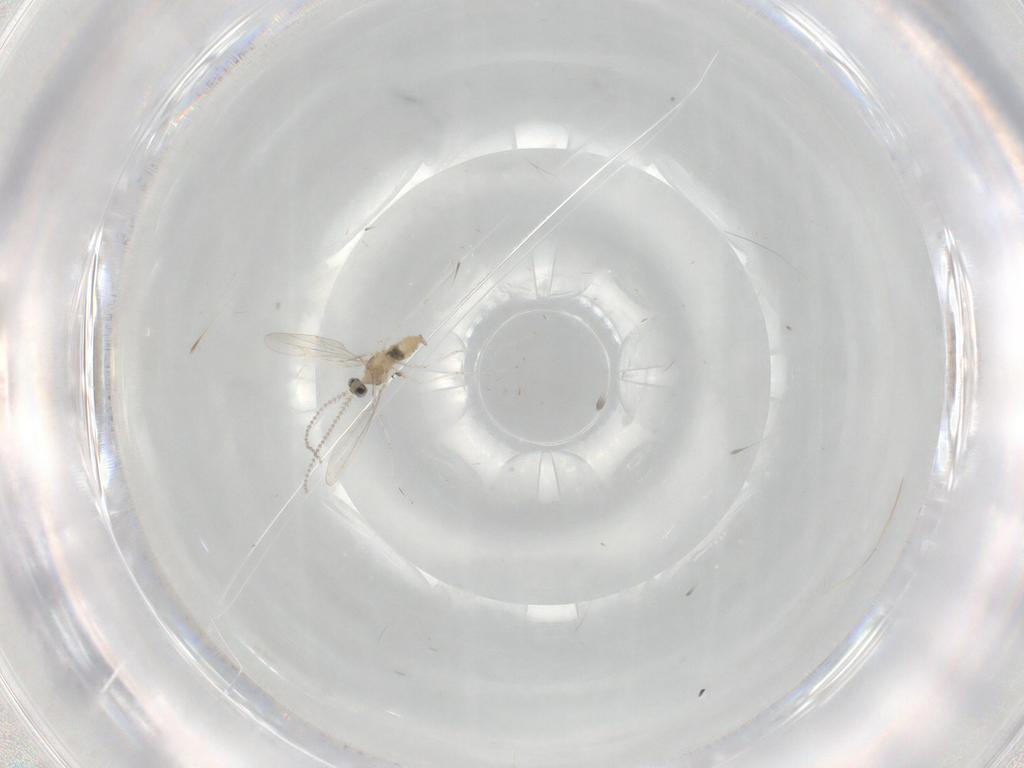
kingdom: Animalia
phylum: Arthropoda
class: Insecta
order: Diptera
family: Cecidomyiidae
